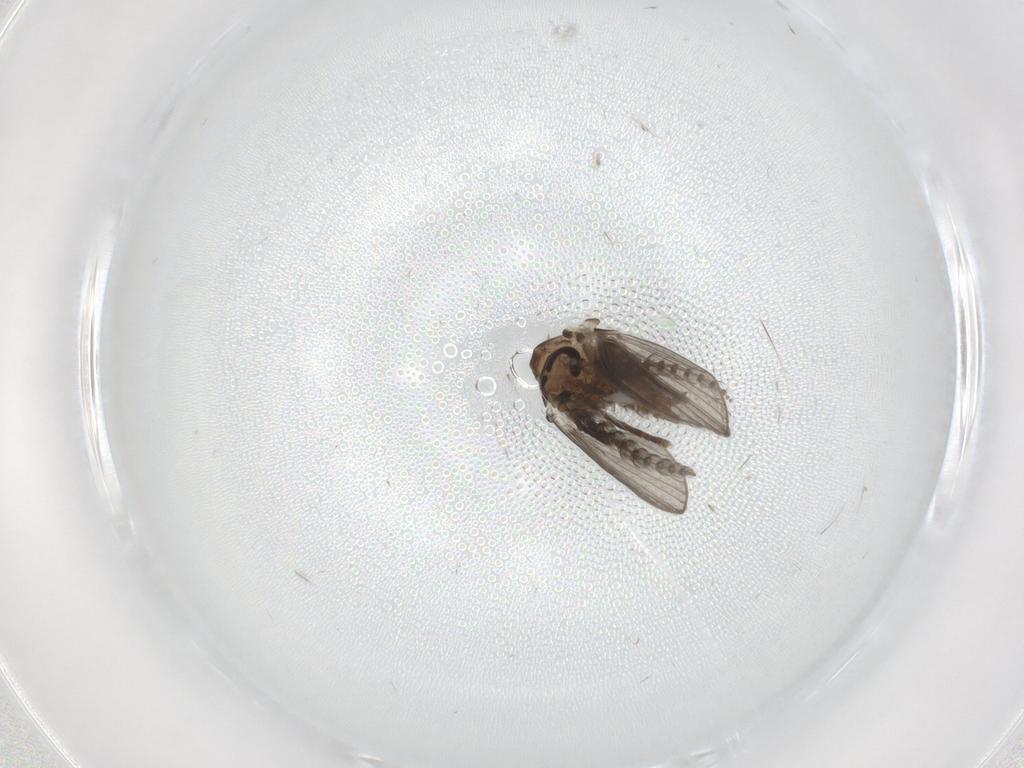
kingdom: Animalia
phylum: Arthropoda
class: Insecta
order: Diptera
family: Psychodidae
